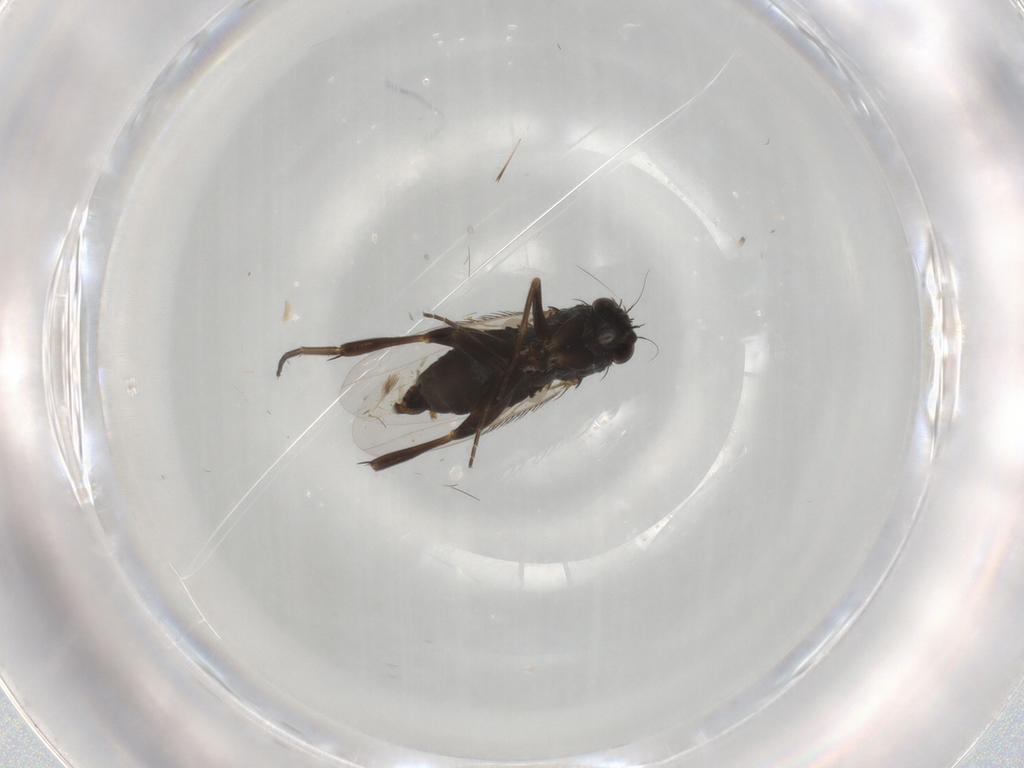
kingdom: Animalia
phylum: Arthropoda
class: Insecta
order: Diptera
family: Phoridae
